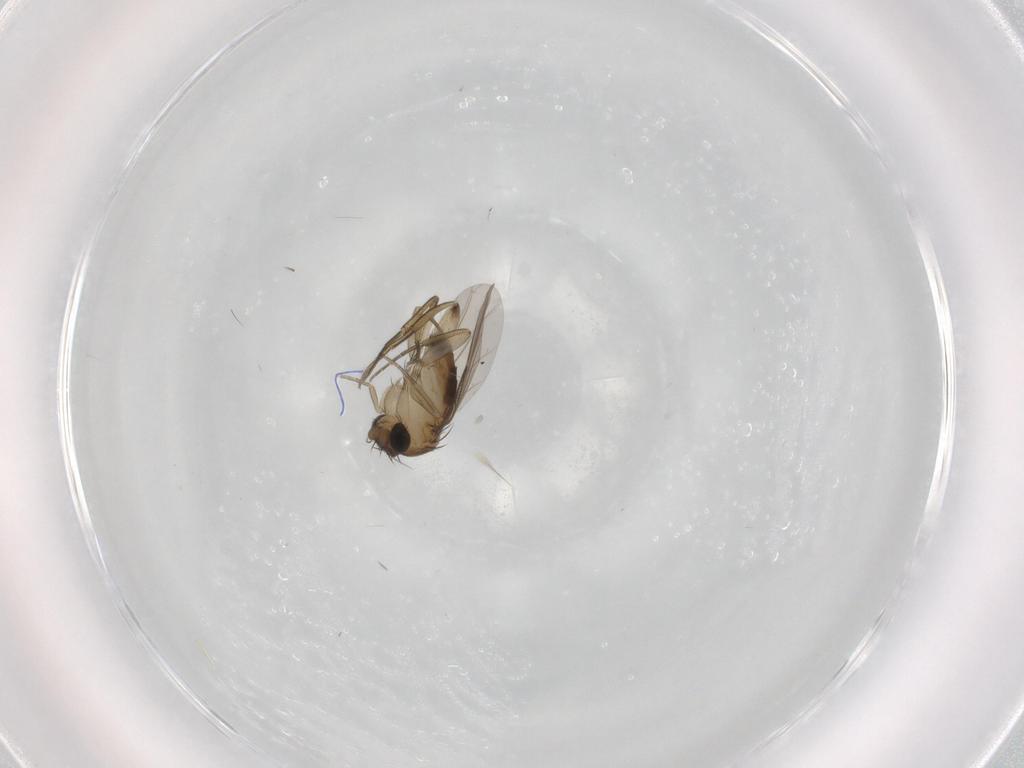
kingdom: Animalia
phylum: Arthropoda
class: Insecta
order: Diptera
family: Phoridae
